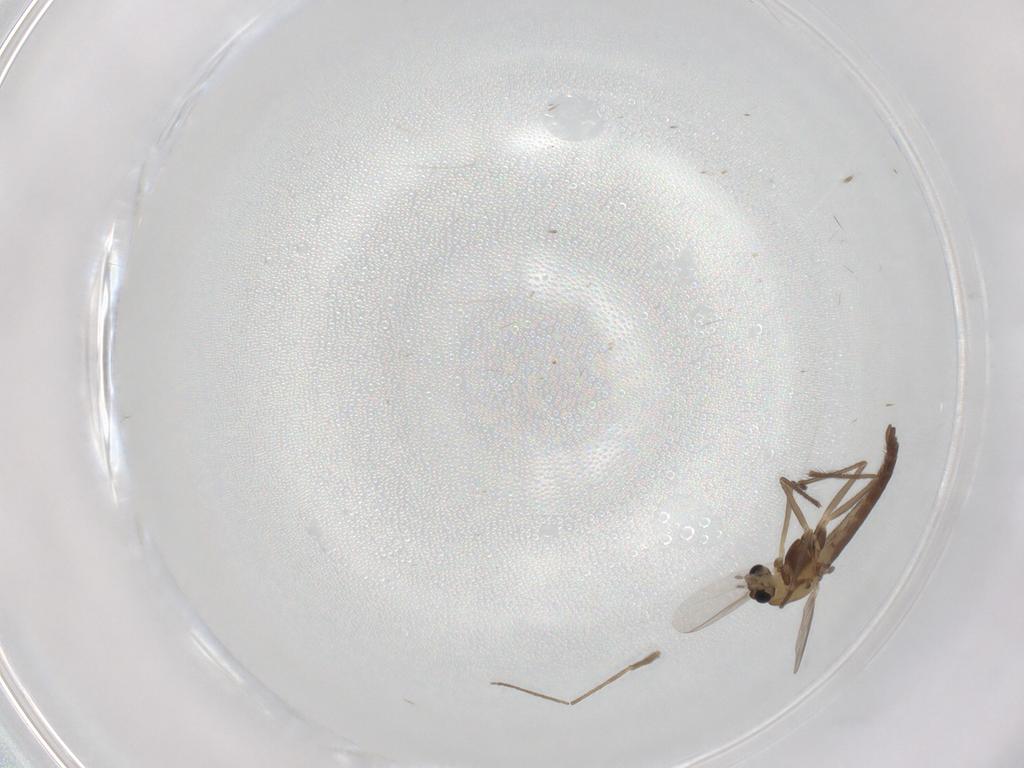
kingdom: Animalia
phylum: Arthropoda
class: Insecta
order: Diptera
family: Chironomidae
